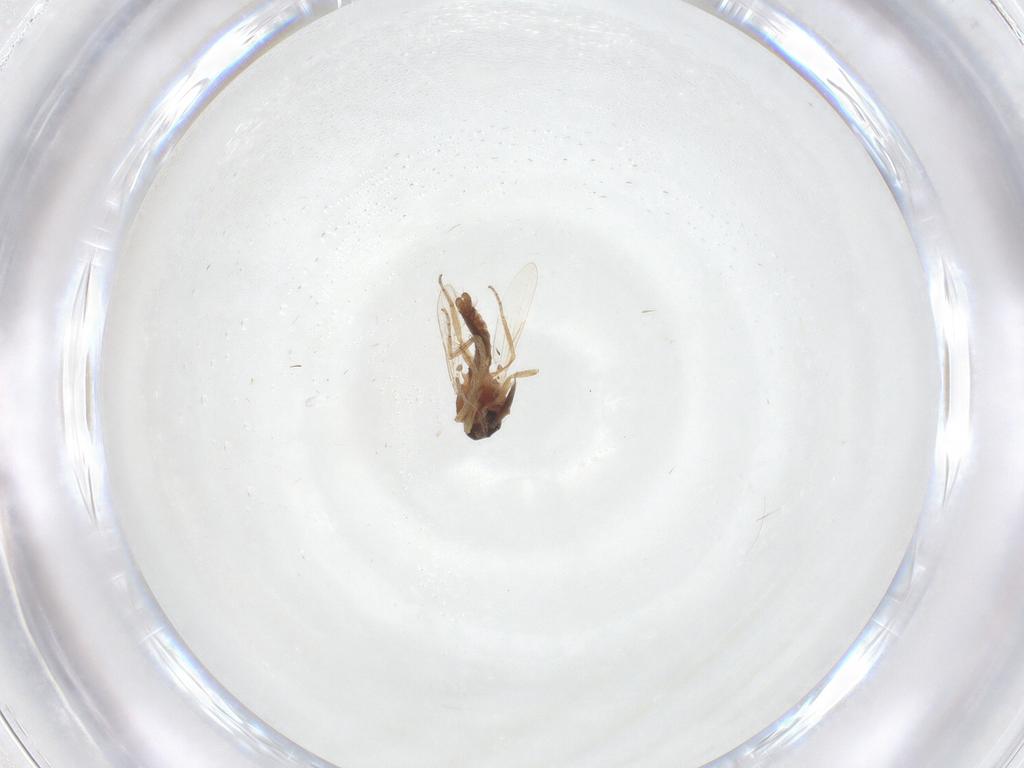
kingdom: Animalia
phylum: Arthropoda
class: Insecta
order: Diptera
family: Ceratopogonidae
